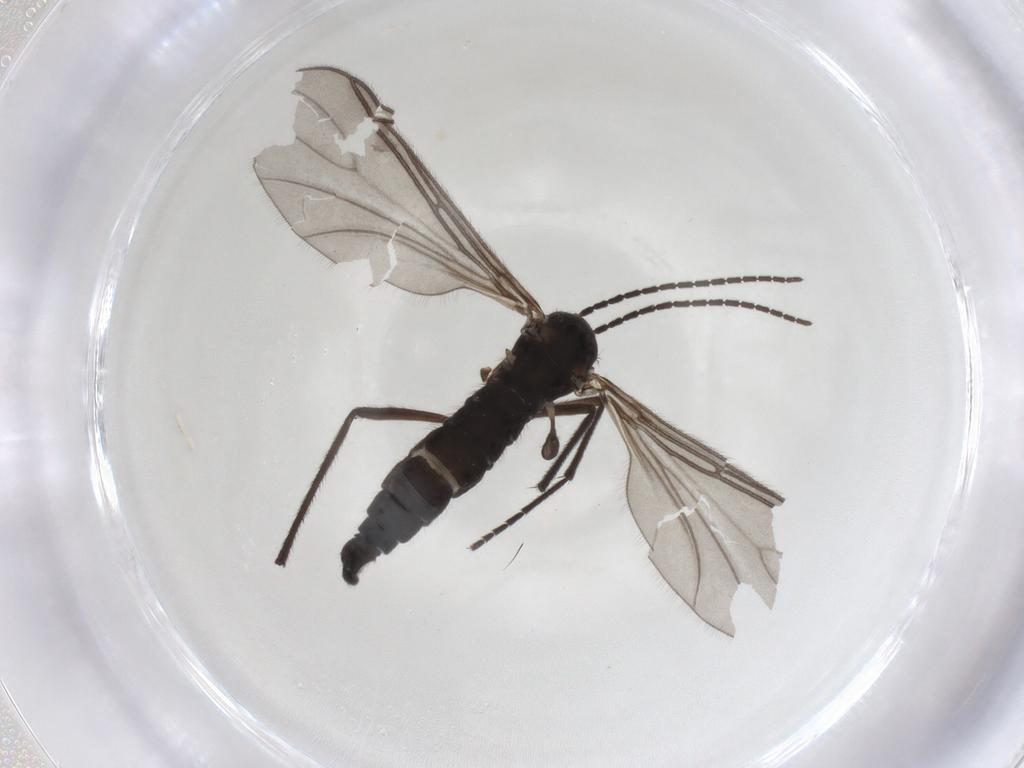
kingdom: Animalia
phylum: Arthropoda
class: Insecta
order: Diptera
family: Sciaridae
